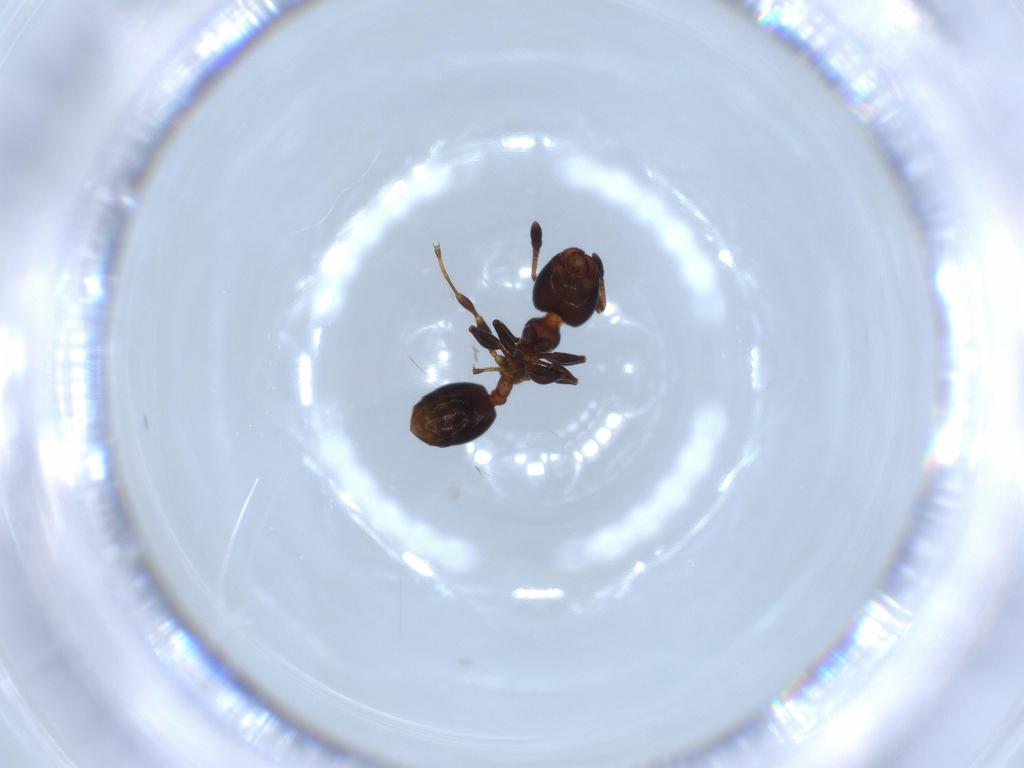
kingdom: Animalia
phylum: Arthropoda
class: Insecta
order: Hymenoptera
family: Formicidae
